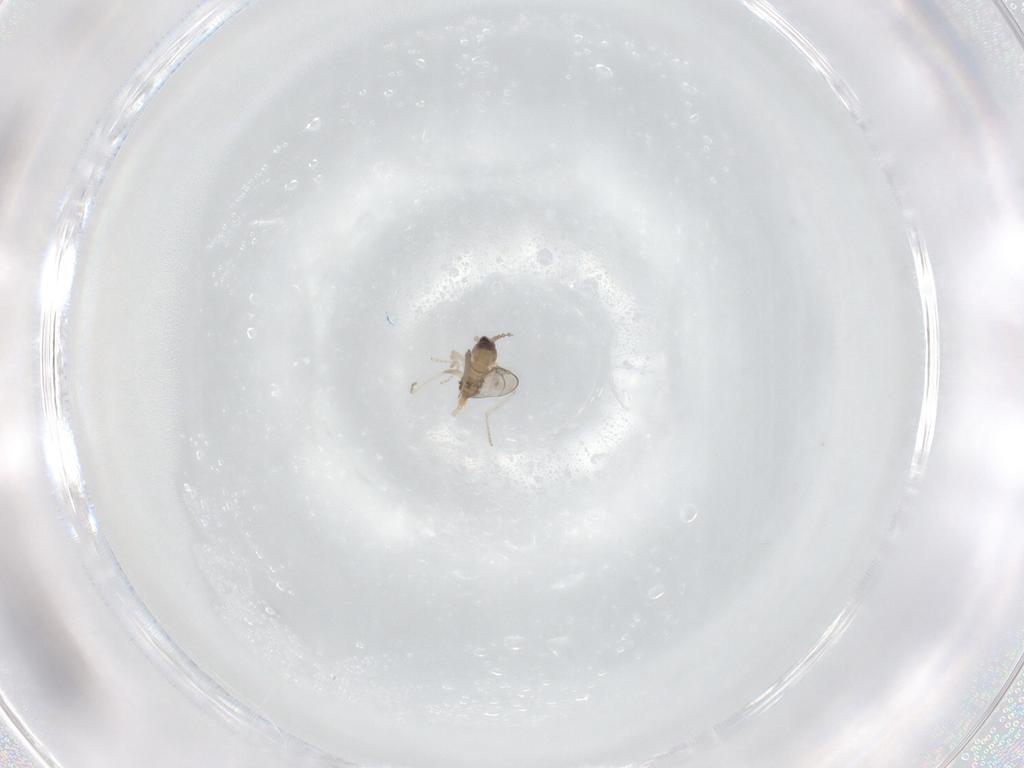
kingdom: Animalia
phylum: Arthropoda
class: Insecta
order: Diptera
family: Cecidomyiidae
